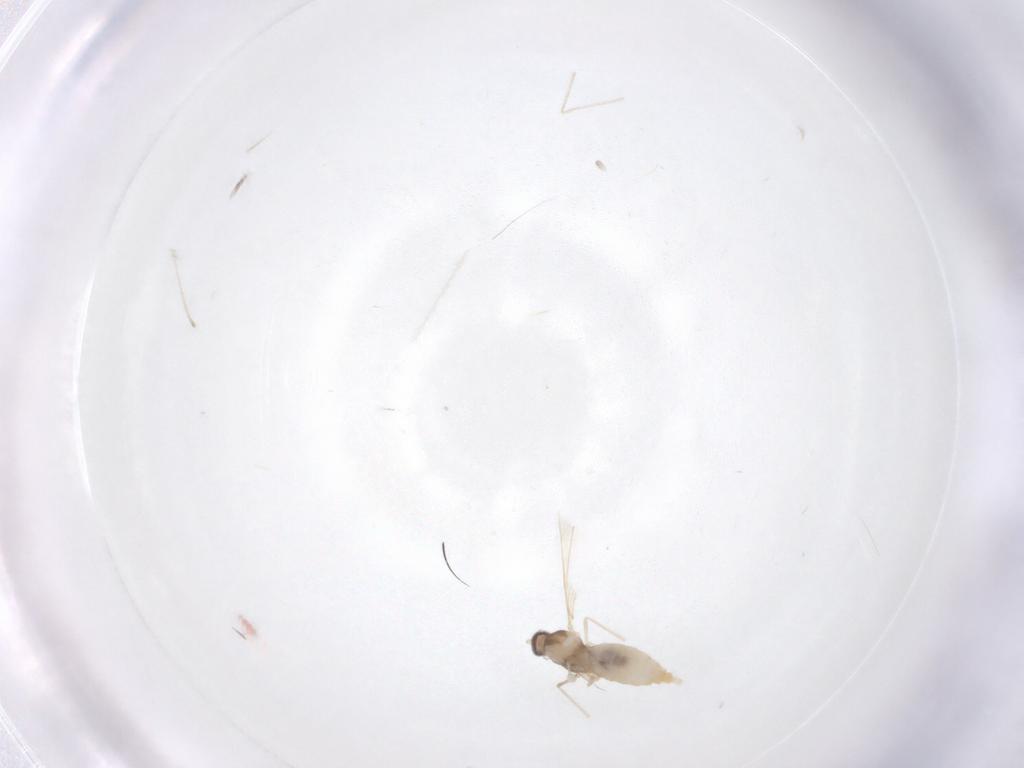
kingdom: Animalia
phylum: Arthropoda
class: Insecta
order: Diptera
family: Cecidomyiidae
